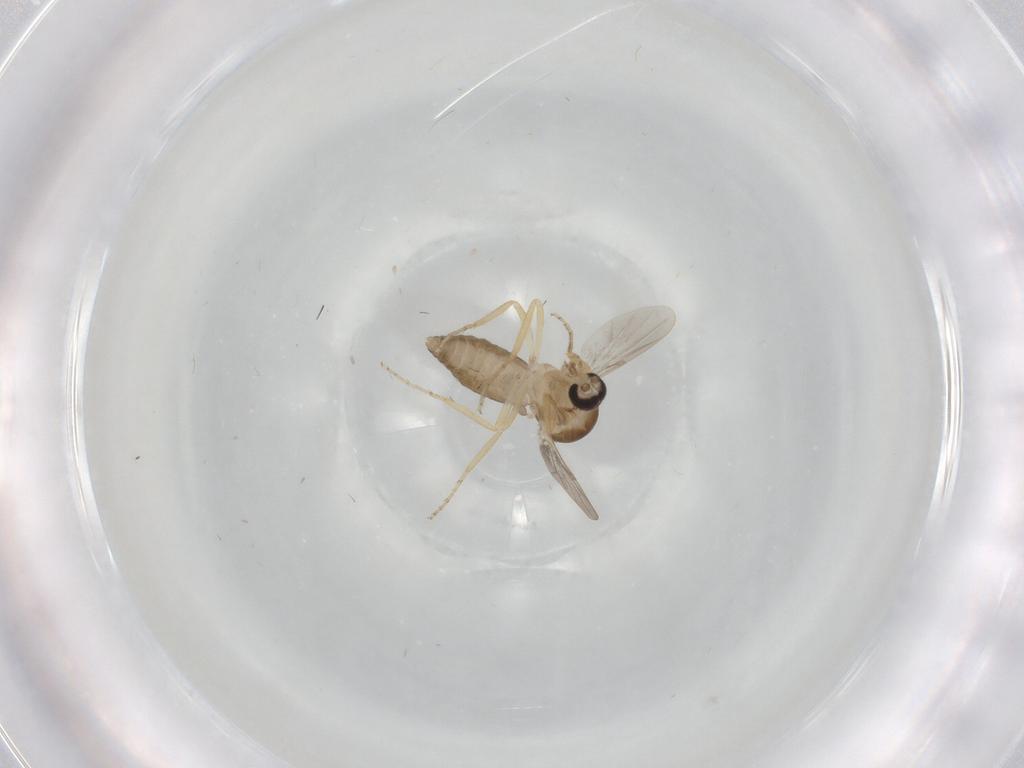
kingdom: Animalia
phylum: Arthropoda
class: Insecta
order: Diptera
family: Ceratopogonidae
